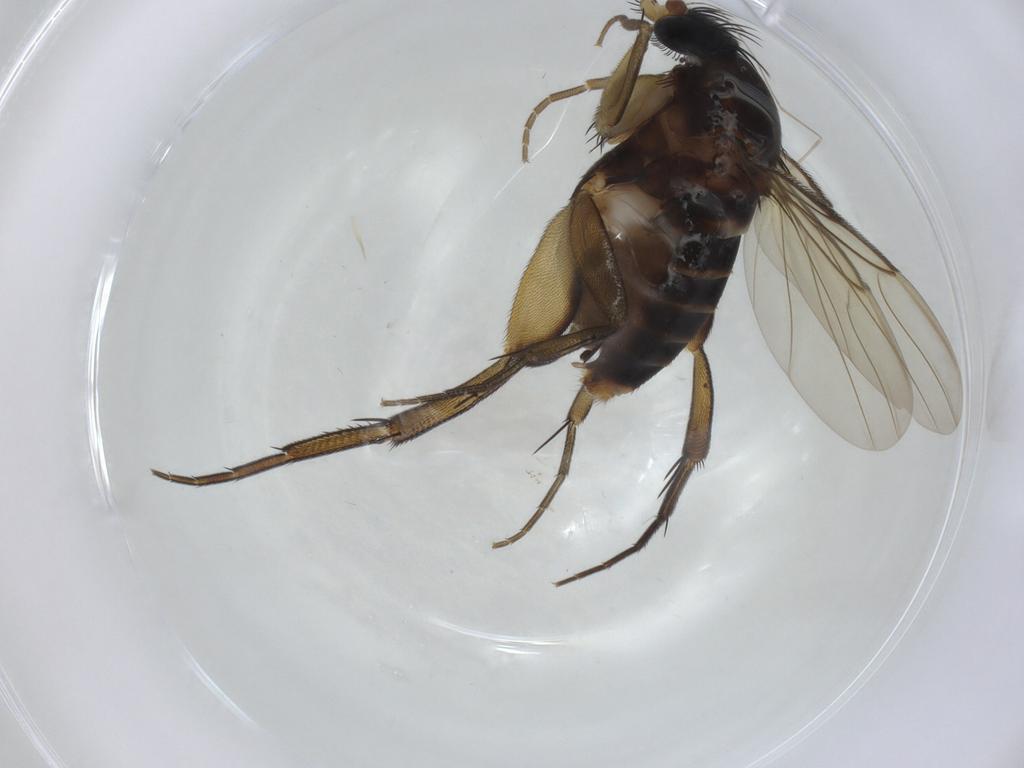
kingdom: Animalia
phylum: Arthropoda
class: Insecta
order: Diptera
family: Phoridae
